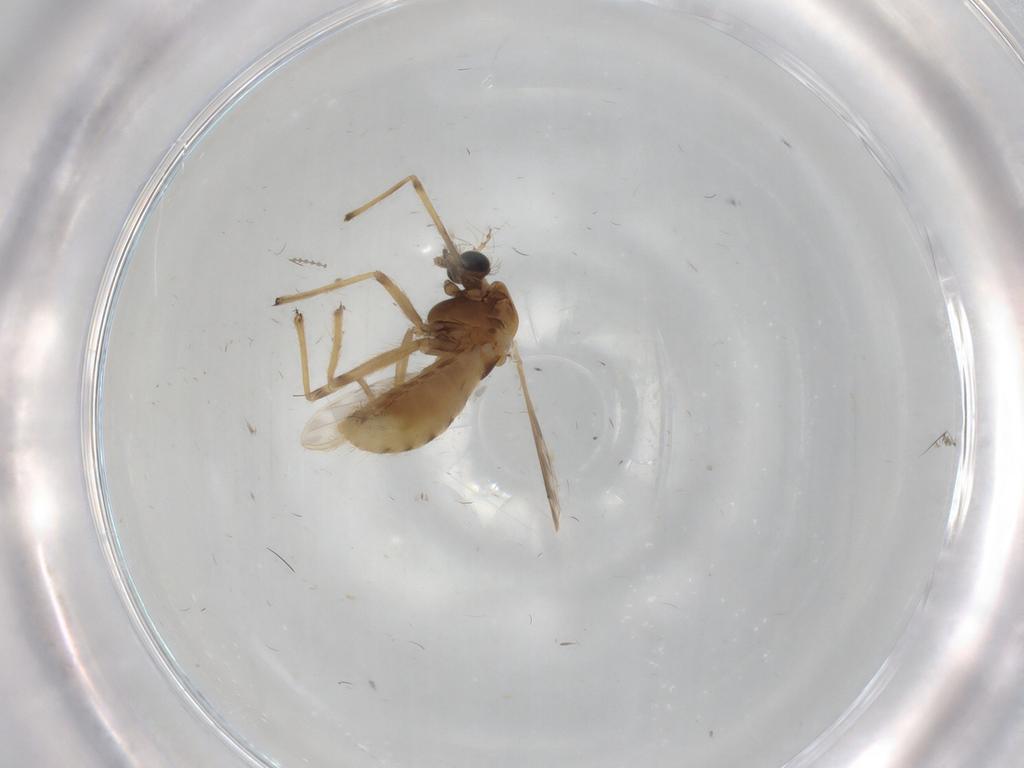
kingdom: Animalia
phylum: Arthropoda
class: Insecta
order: Diptera
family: Chironomidae
